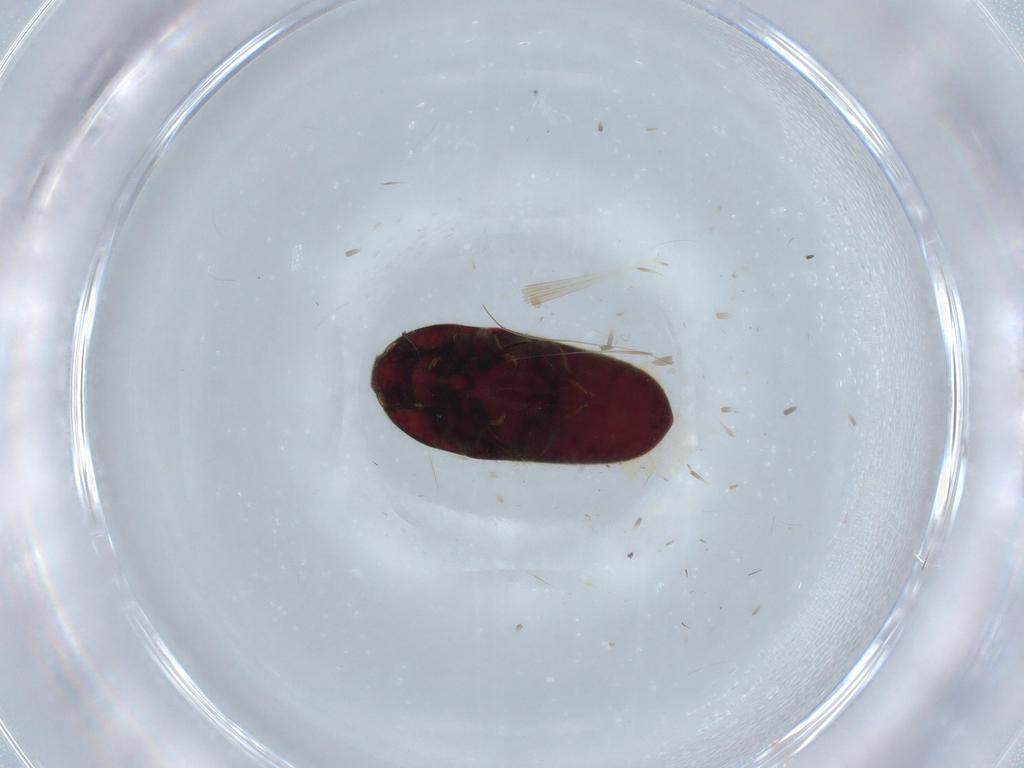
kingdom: Animalia
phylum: Arthropoda
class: Insecta
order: Coleoptera
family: Throscidae
